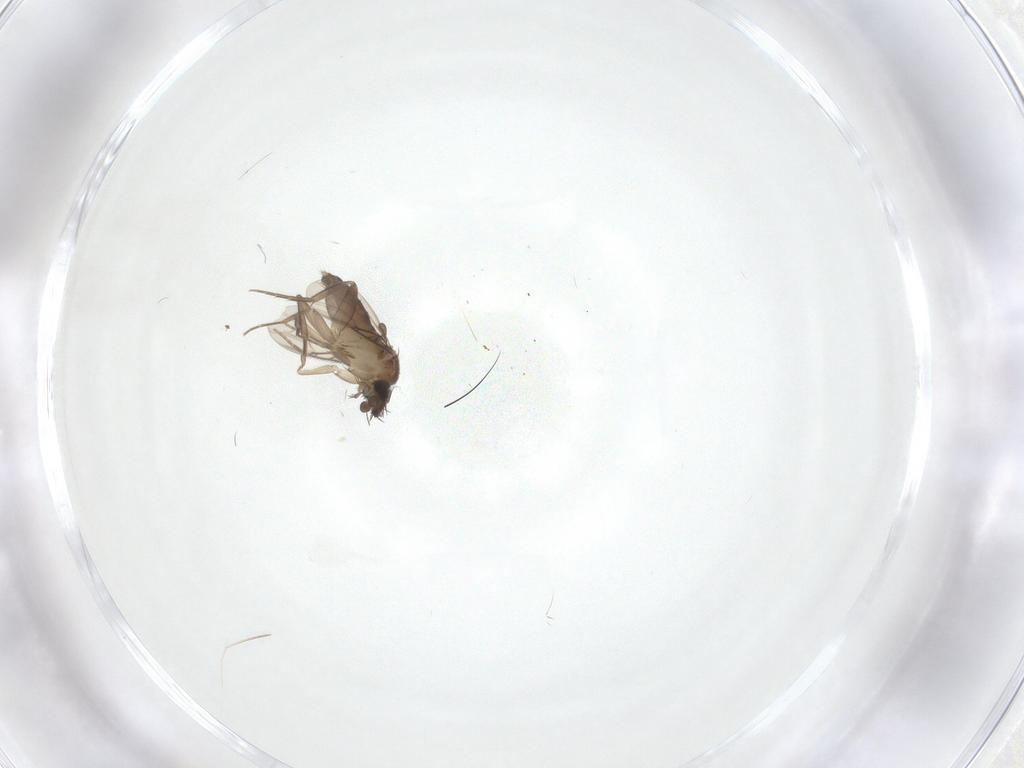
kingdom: Animalia
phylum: Arthropoda
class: Insecta
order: Diptera
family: Phoridae
